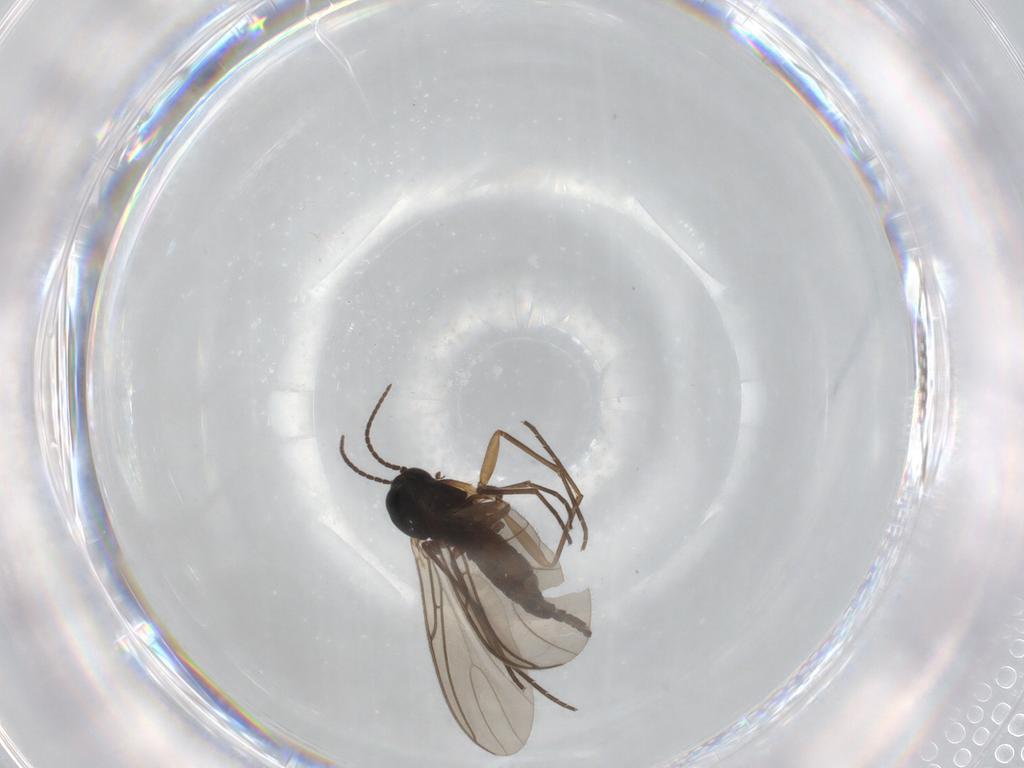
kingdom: Animalia
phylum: Arthropoda
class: Insecta
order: Diptera
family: Sciaridae
